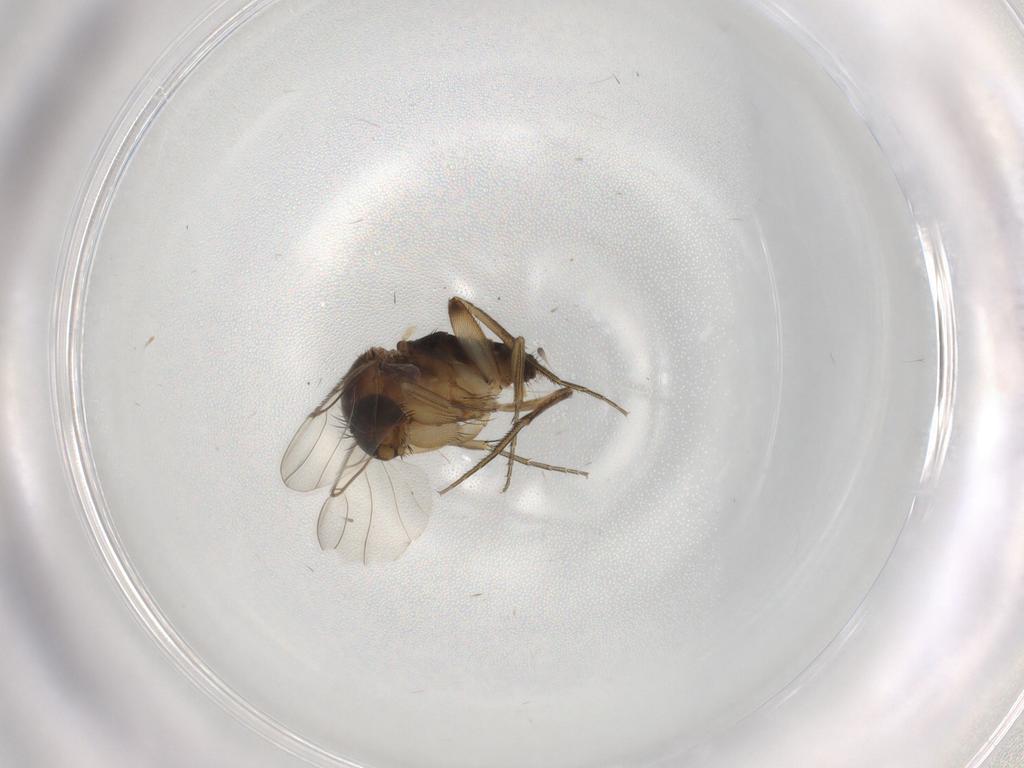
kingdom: Animalia
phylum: Arthropoda
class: Insecta
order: Diptera
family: Phoridae
